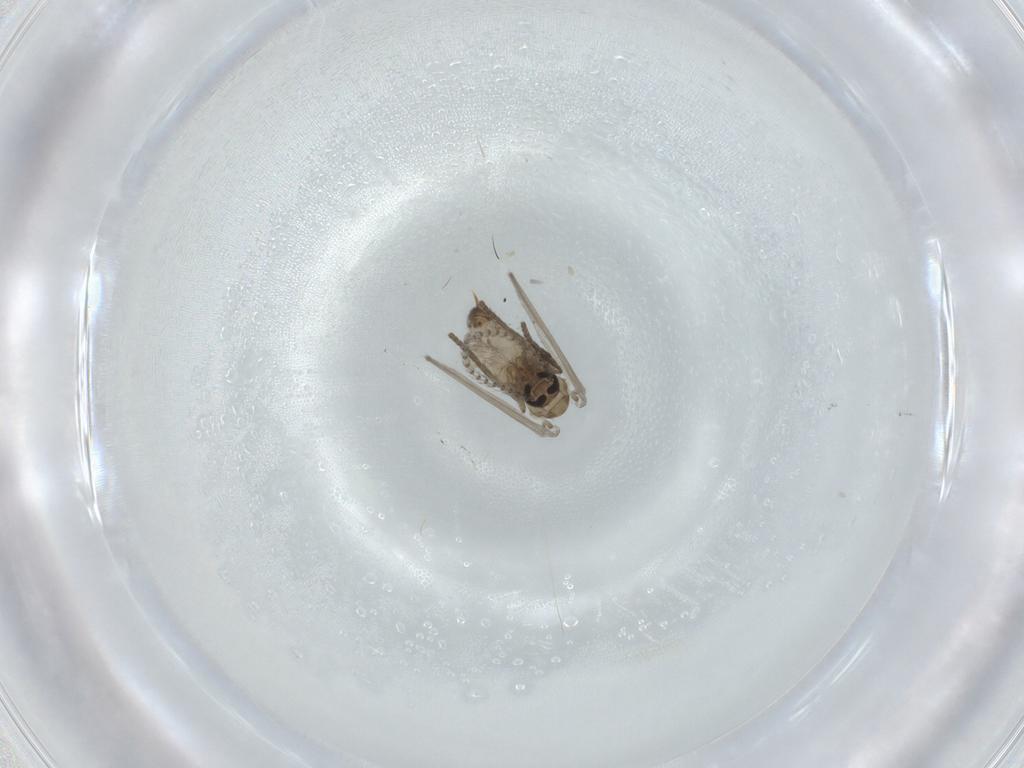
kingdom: Animalia
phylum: Arthropoda
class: Insecta
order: Diptera
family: Psychodidae
